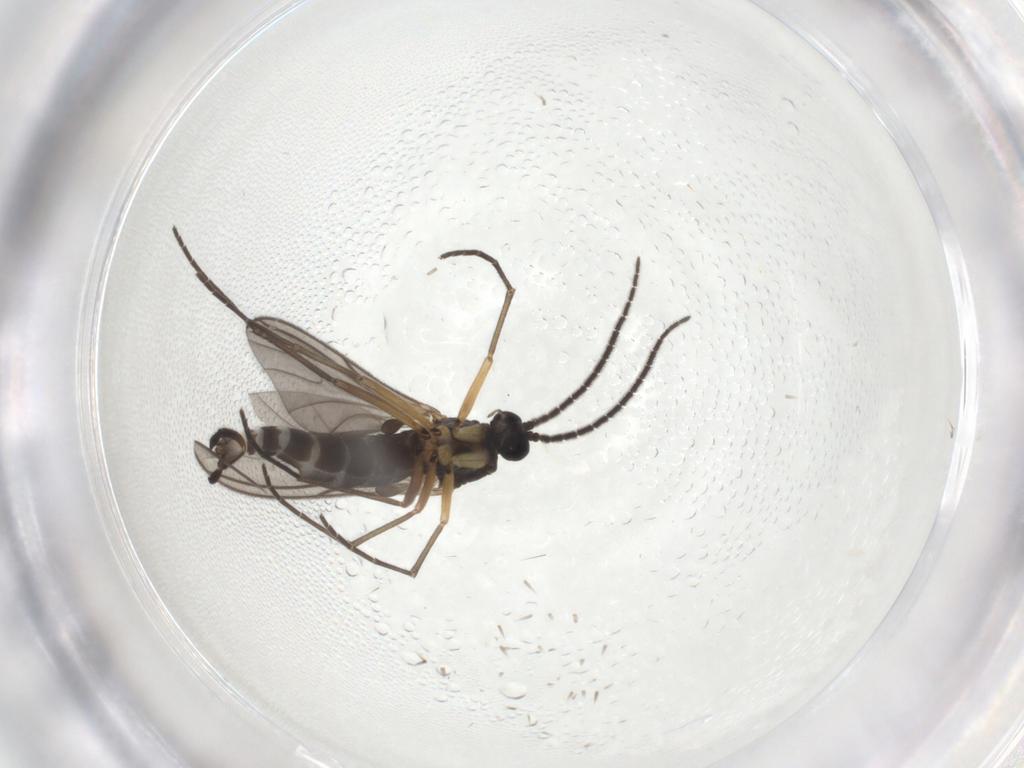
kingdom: Animalia
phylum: Arthropoda
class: Insecta
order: Diptera
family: Sciaridae
